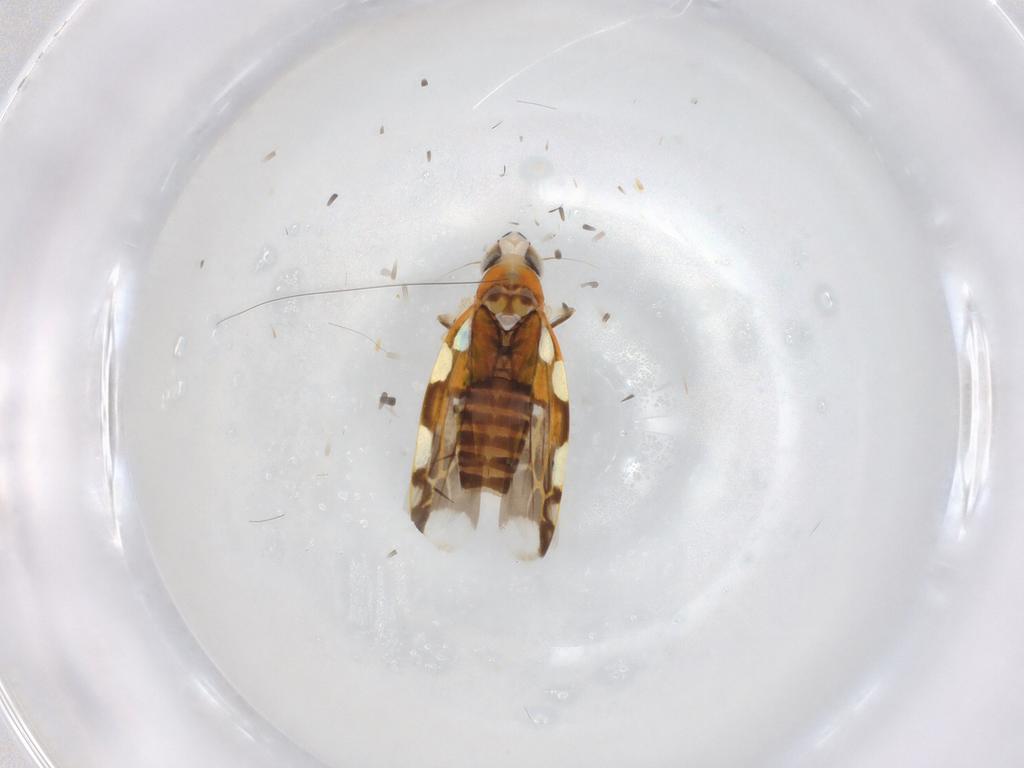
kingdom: Animalia
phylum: Arthropoda
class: Insecta
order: Hemiptera
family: Cicadellidae
